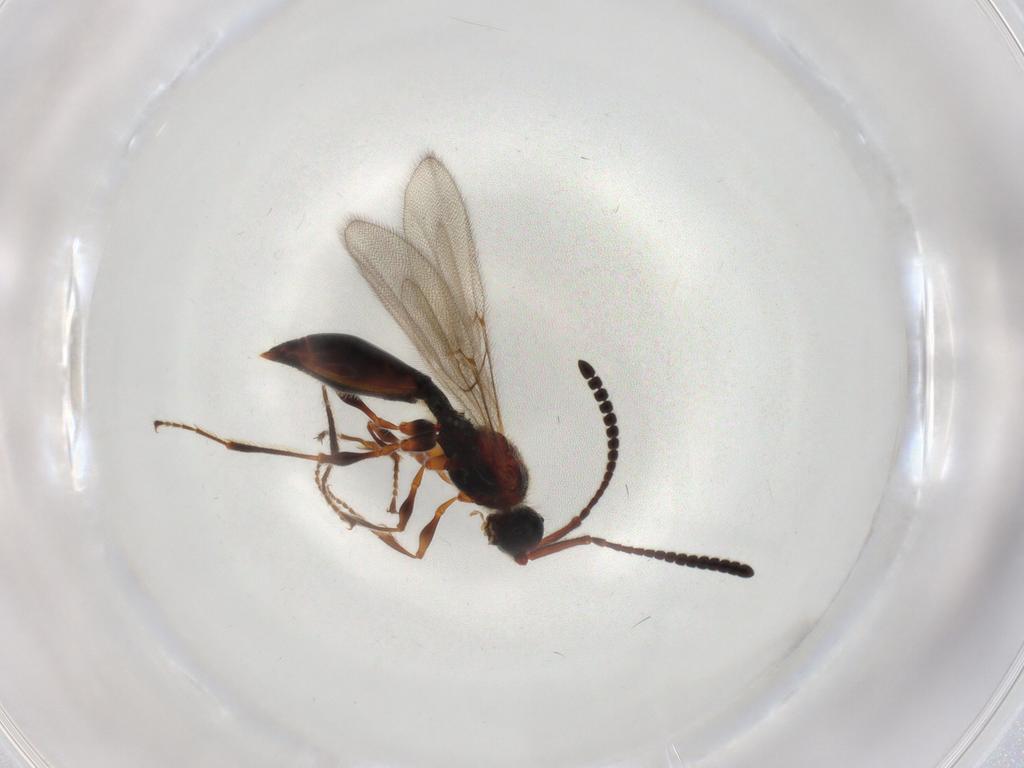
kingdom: Animalia
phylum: Arthropoda
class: Insecta
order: Hymenoptera
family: Diapriidae
